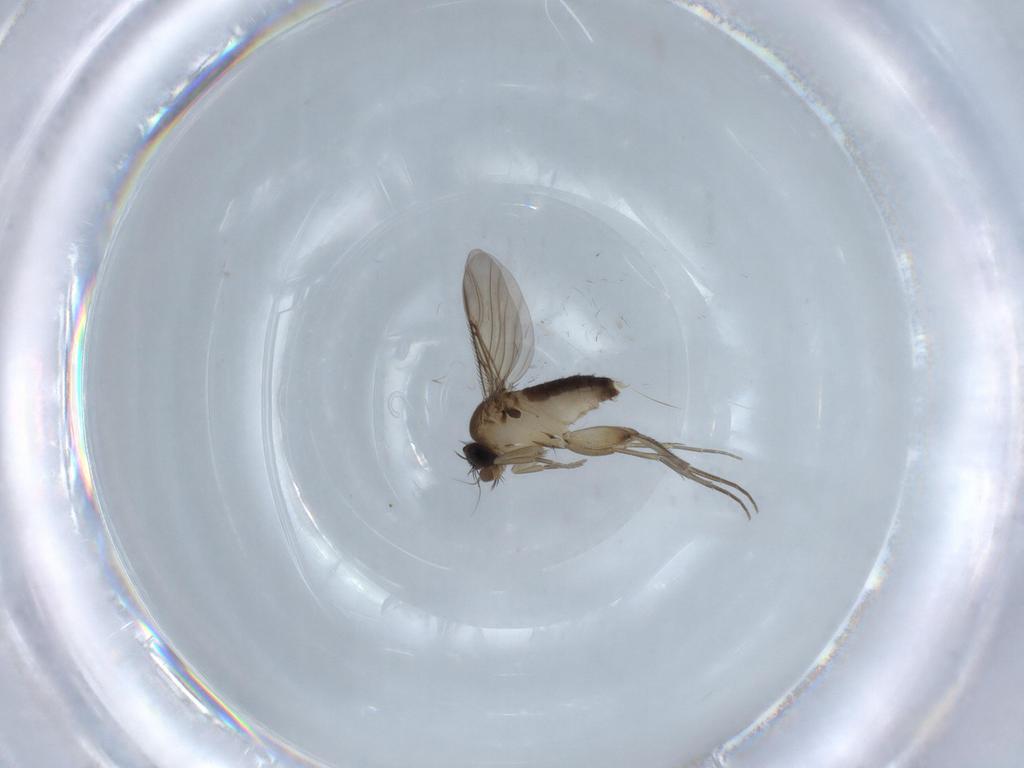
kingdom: Animalia
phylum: Arthropoda
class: Insecta
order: Diptera
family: Phoridae
